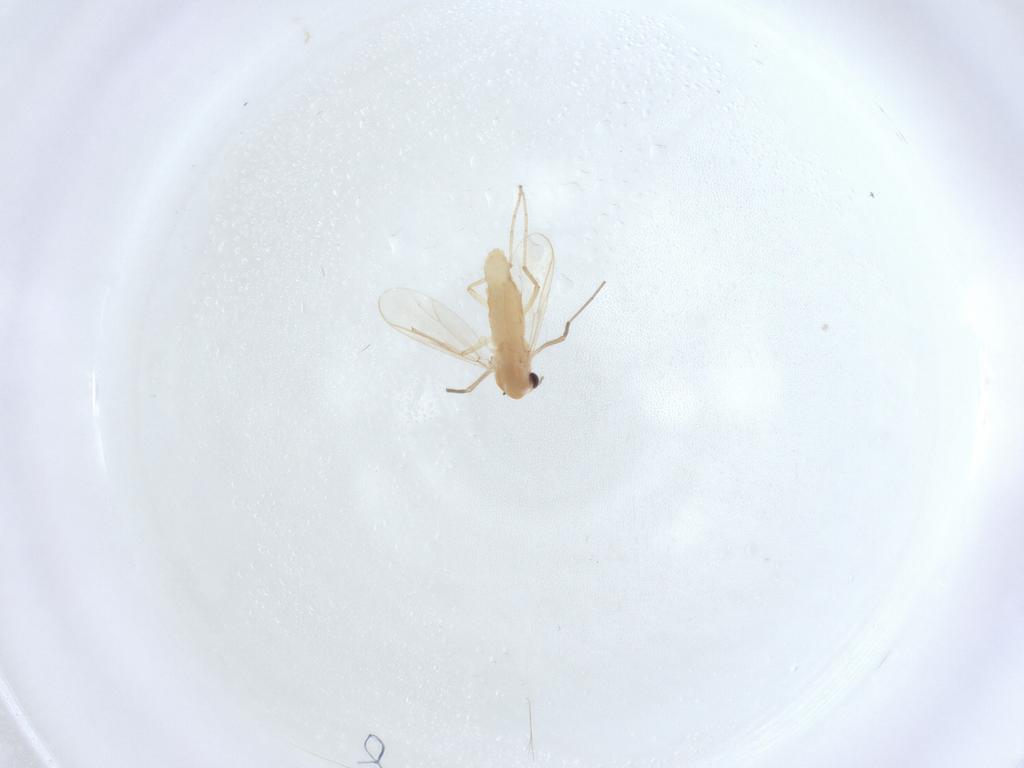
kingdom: Animalia
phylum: Arthropoda
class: Insecta
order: Diptera
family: Chironomidae
